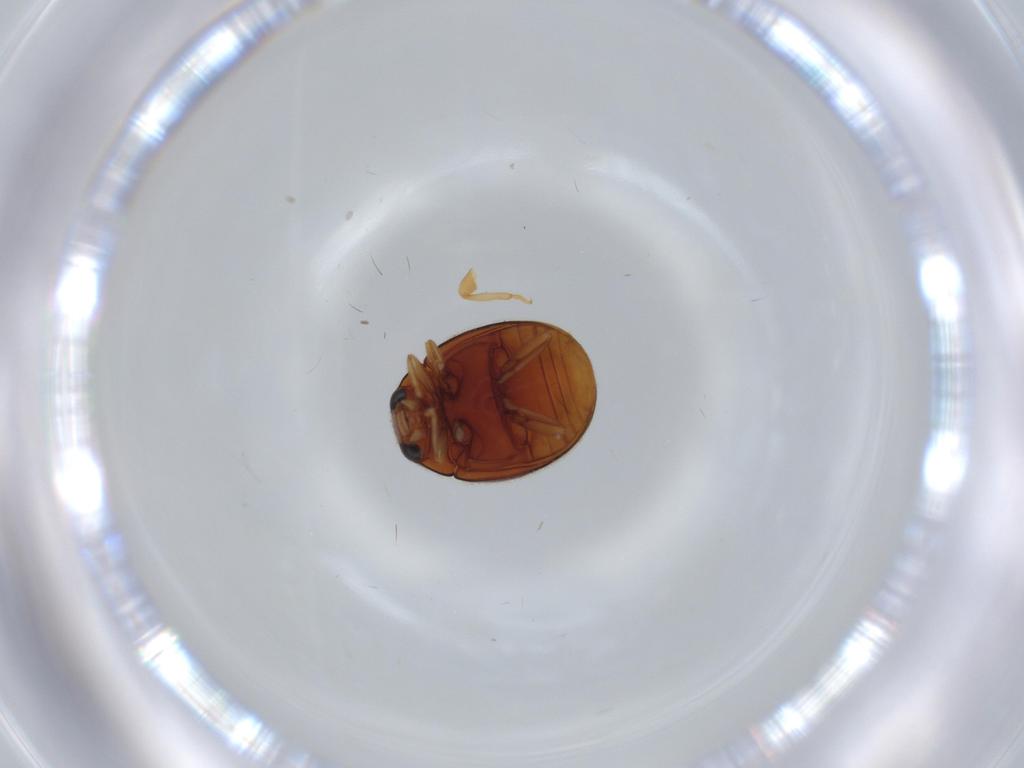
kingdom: Animalia
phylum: Arthropoda
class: Insecta
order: Coleoptera
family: Coccinellidae
